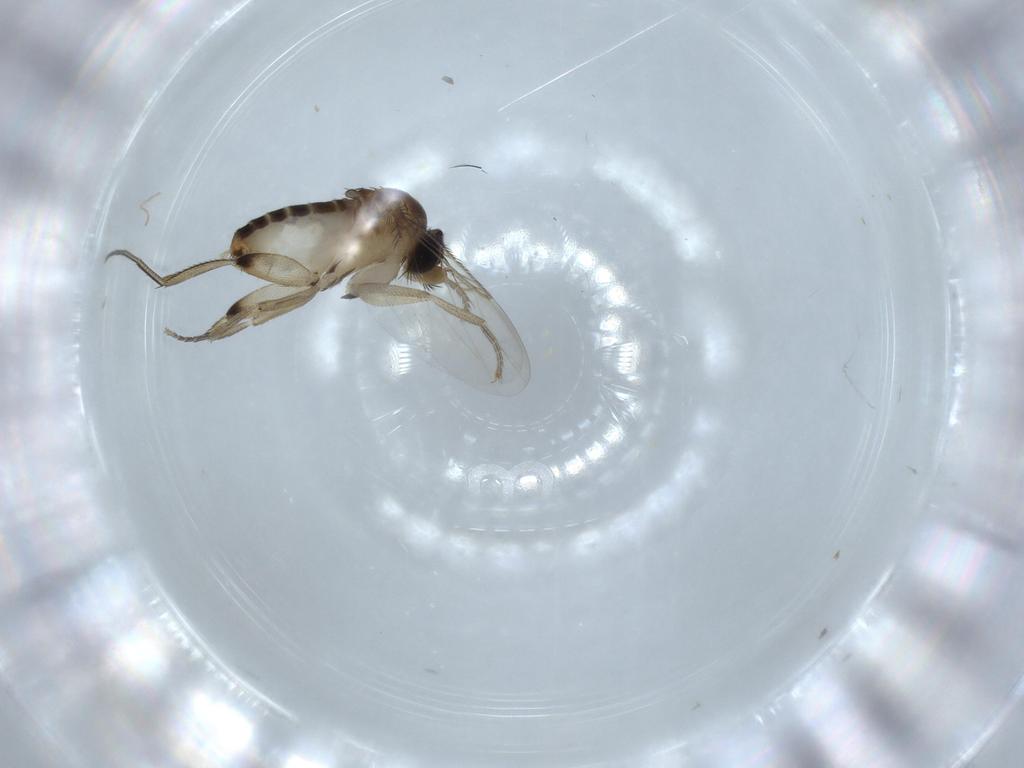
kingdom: Animalia
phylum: Arthropoda
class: Insecta
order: Diptera
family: Phoridae
